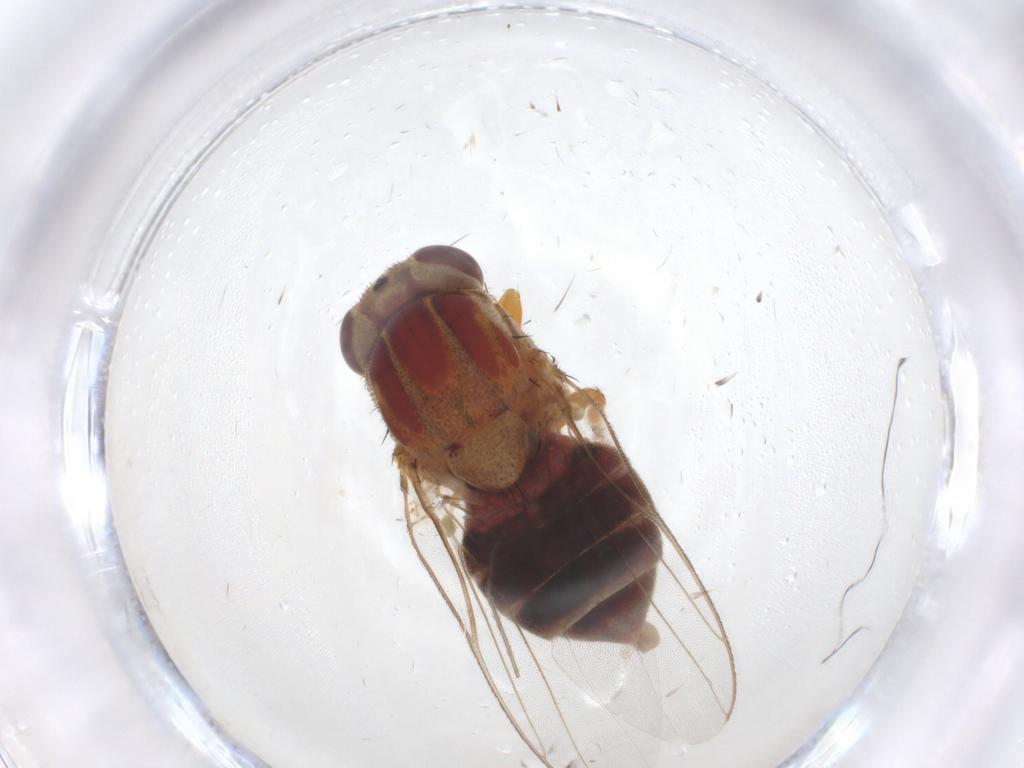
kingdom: Animalia
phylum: Arthropoda
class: Insecta
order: Diptera
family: Chloropidae
